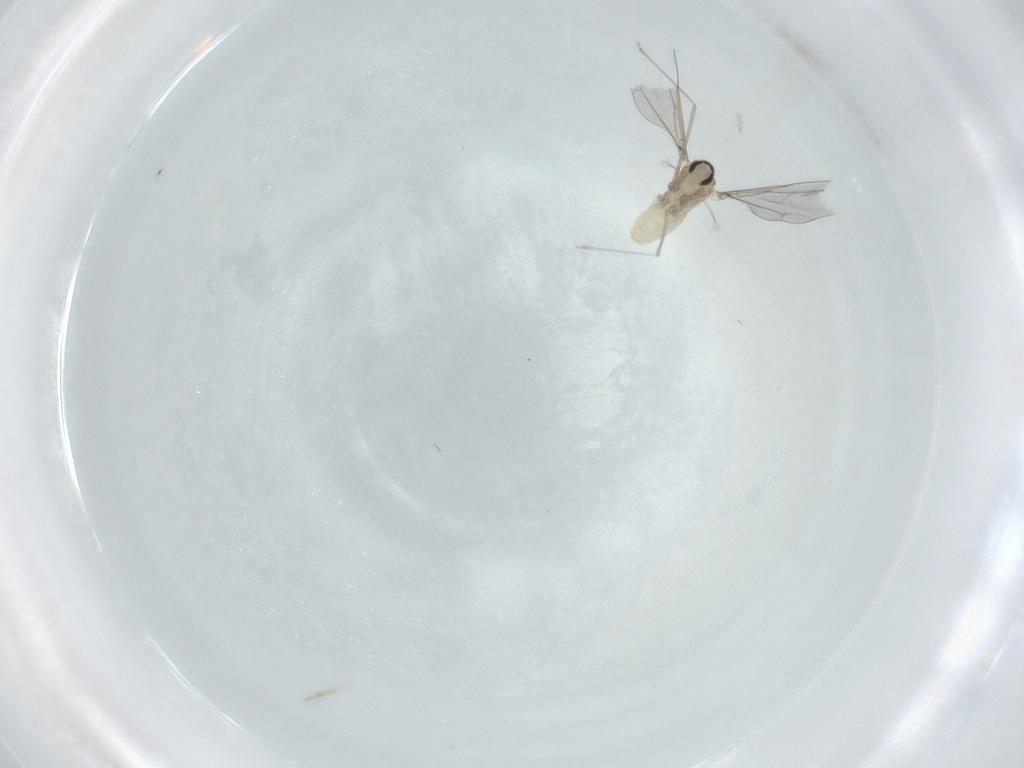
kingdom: Animalia
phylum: Arthropoda
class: Insecta
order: Diptera
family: Cecidomyiidae
